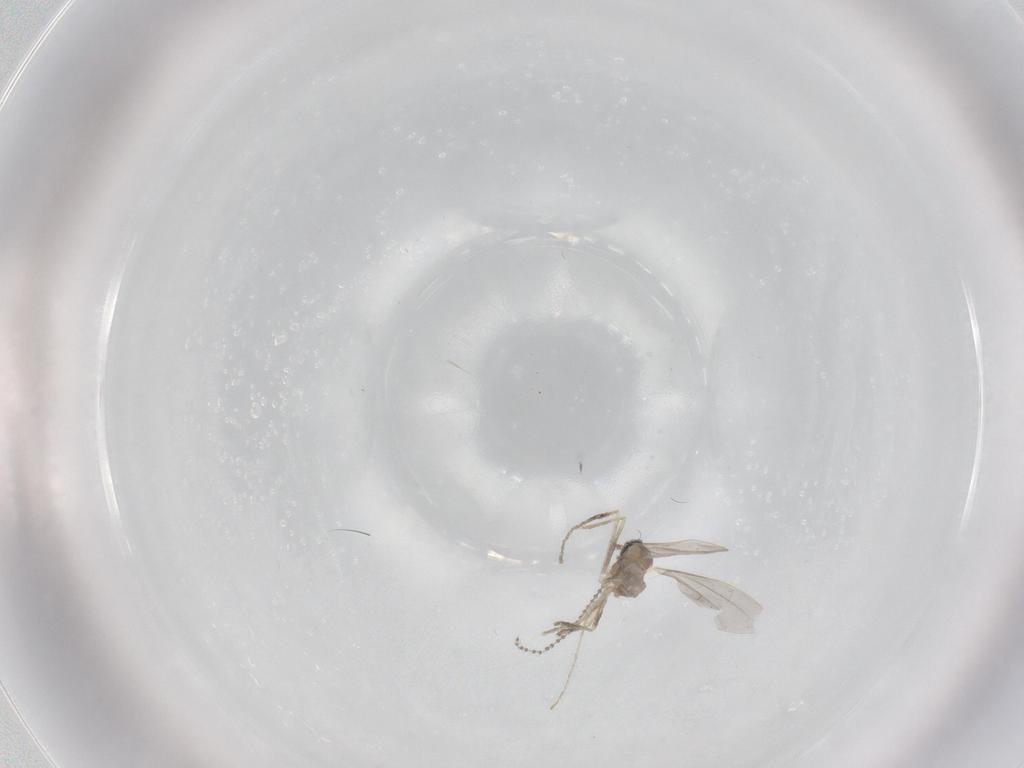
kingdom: Animalia
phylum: Arthropoda
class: Insecta
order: Diptera
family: Cecidomyiidae
